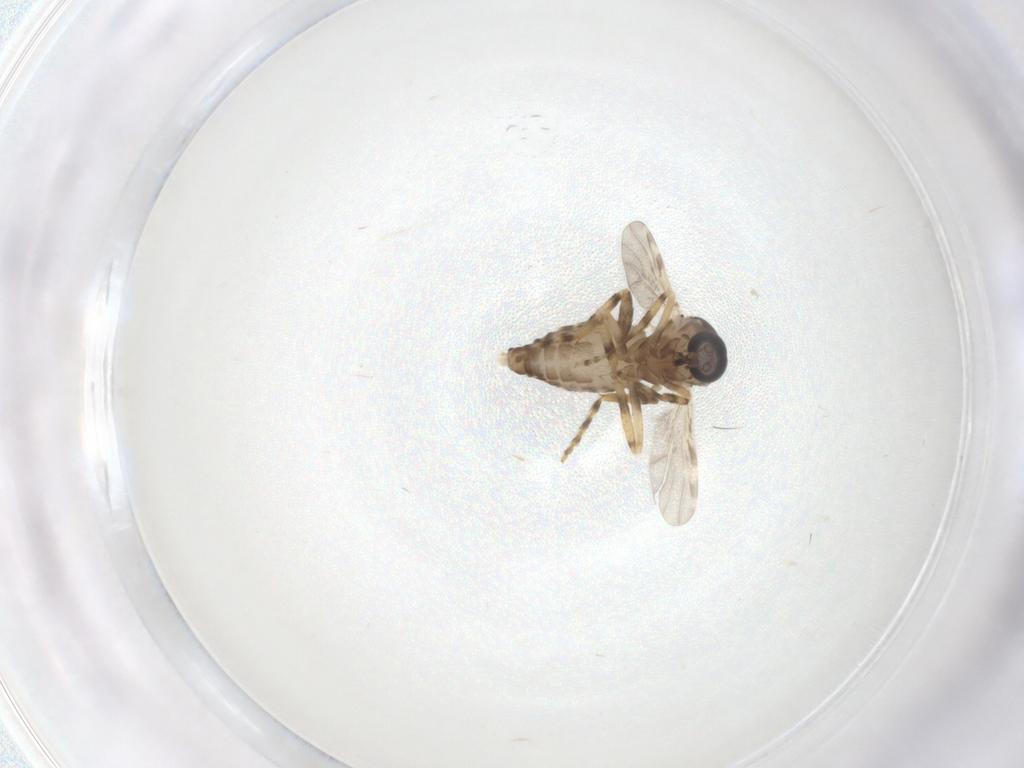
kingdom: Animalia
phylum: Arthropoda
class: Insecta
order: Diptera
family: Ceratopogonidae
